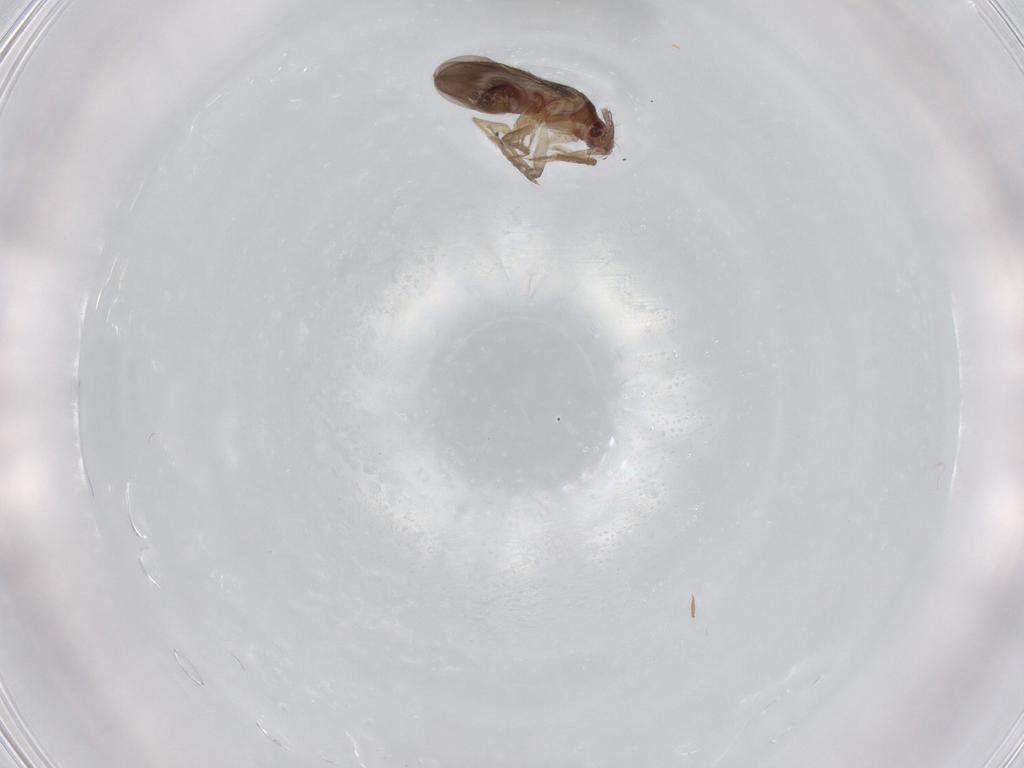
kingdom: Animalia
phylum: Arthropoda
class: Insecta
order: Hemiptera
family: Ceratocombidae
